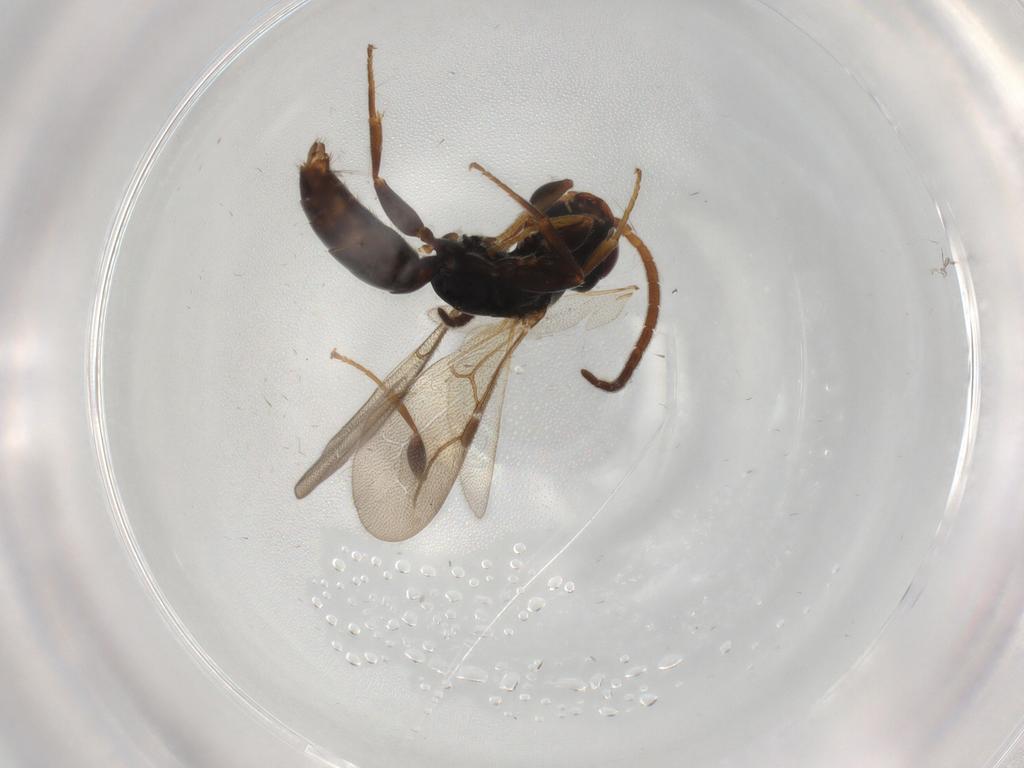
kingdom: Animalia
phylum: Arthropoda
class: Insecta
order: Hymenoptera
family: Bethylidae
